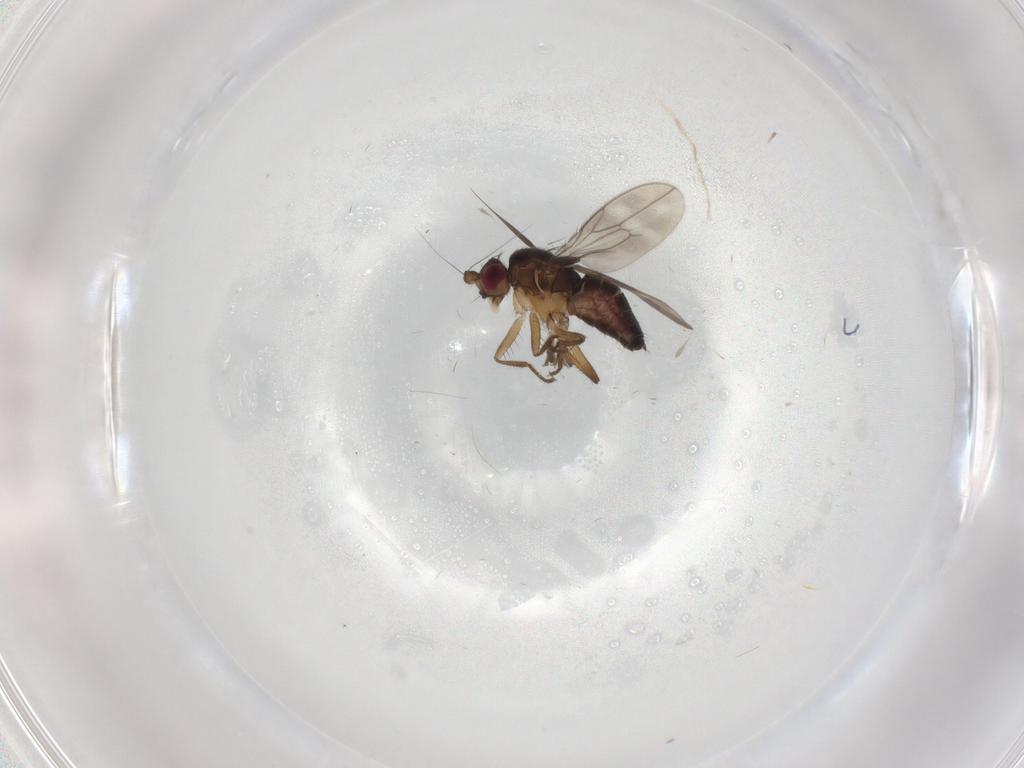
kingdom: Animalia
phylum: Arthropoda
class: Insecta
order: Diptera
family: Sphaeroceridae
